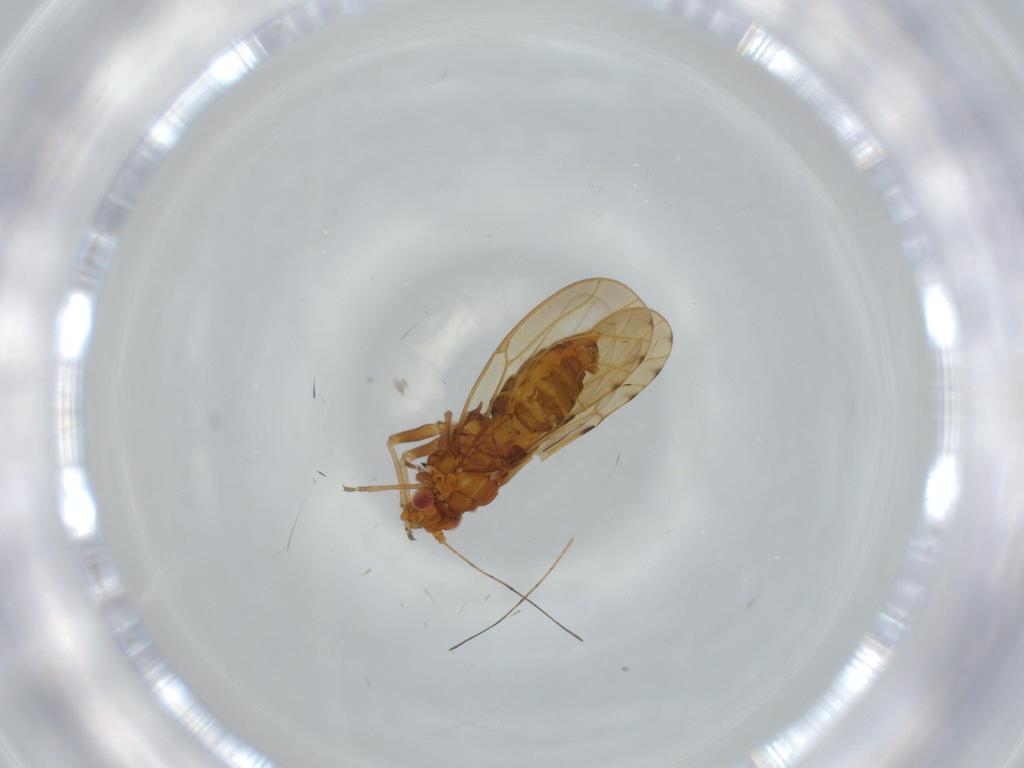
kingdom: Animalia
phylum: Arthropoda
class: Insecta
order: Hemiptera
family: Psylloidea_incertae_sedis
